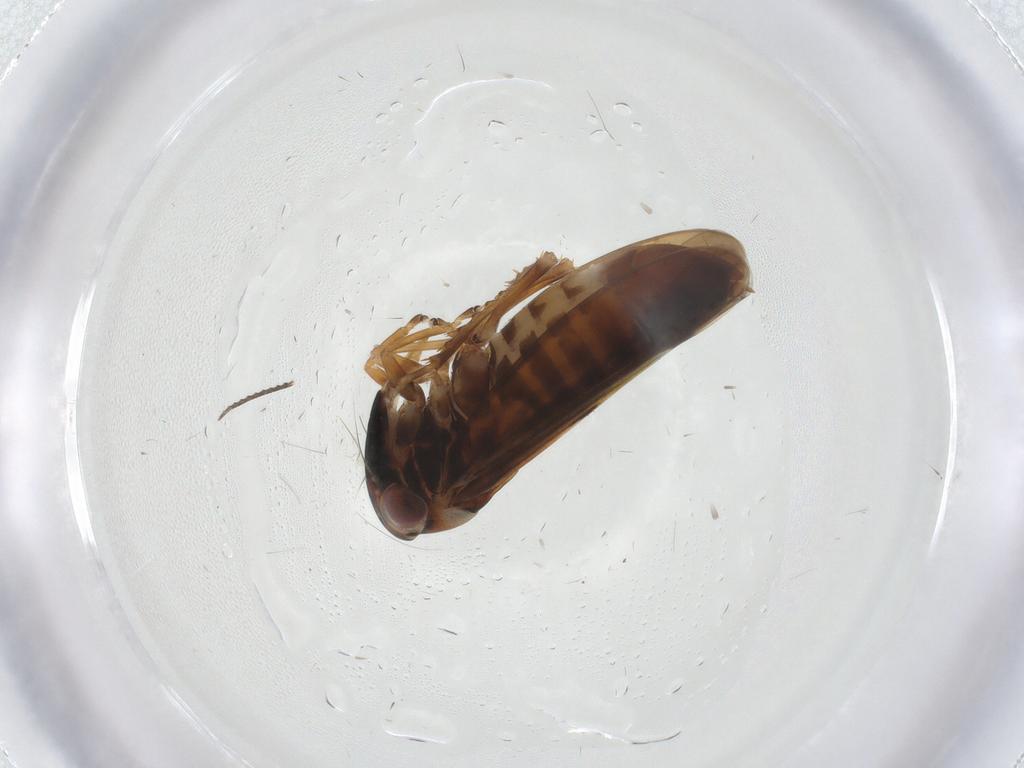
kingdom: Animalia
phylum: Arthropoda
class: Insecta
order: Hemiptera
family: Cicadellidae
